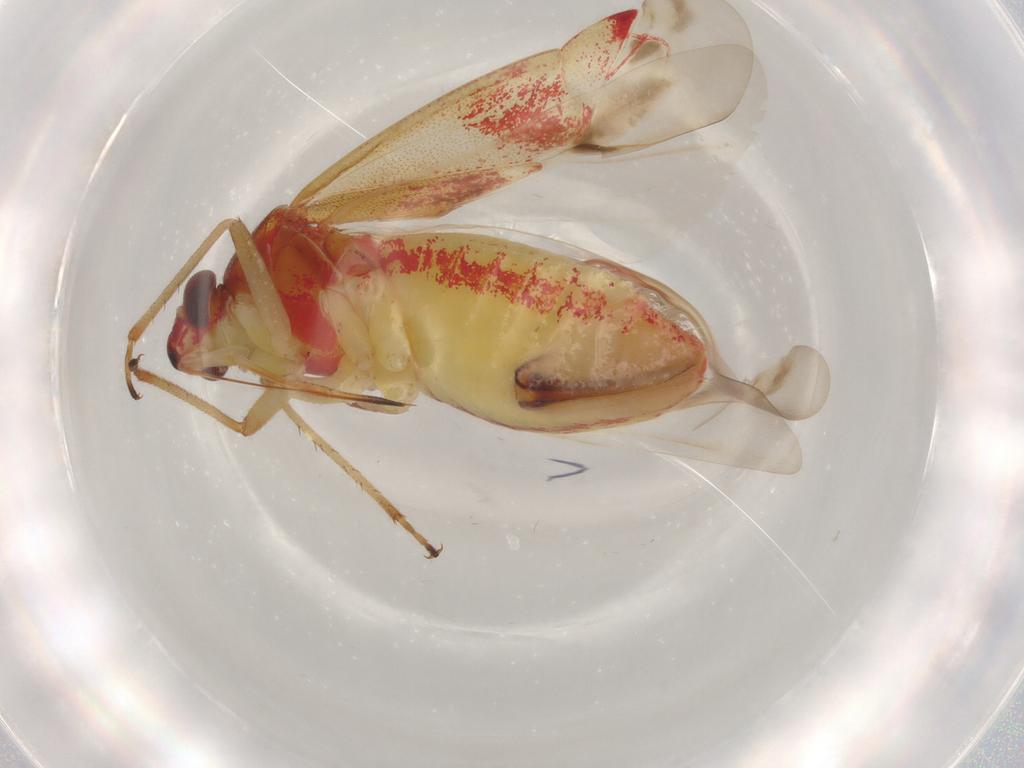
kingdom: Animalia
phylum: Arthropoda
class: Insecta
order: Hemiptera
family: Miridae
